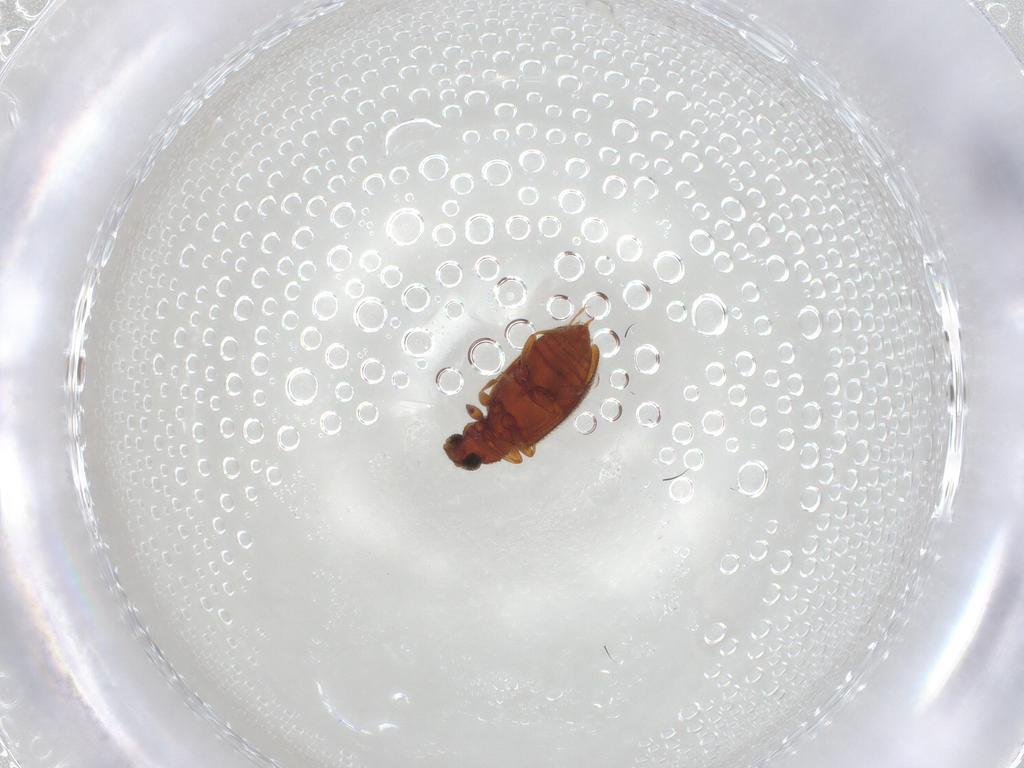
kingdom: Animalia
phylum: Arthropoda
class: Insecta
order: Coleoptera
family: Latridiidae
